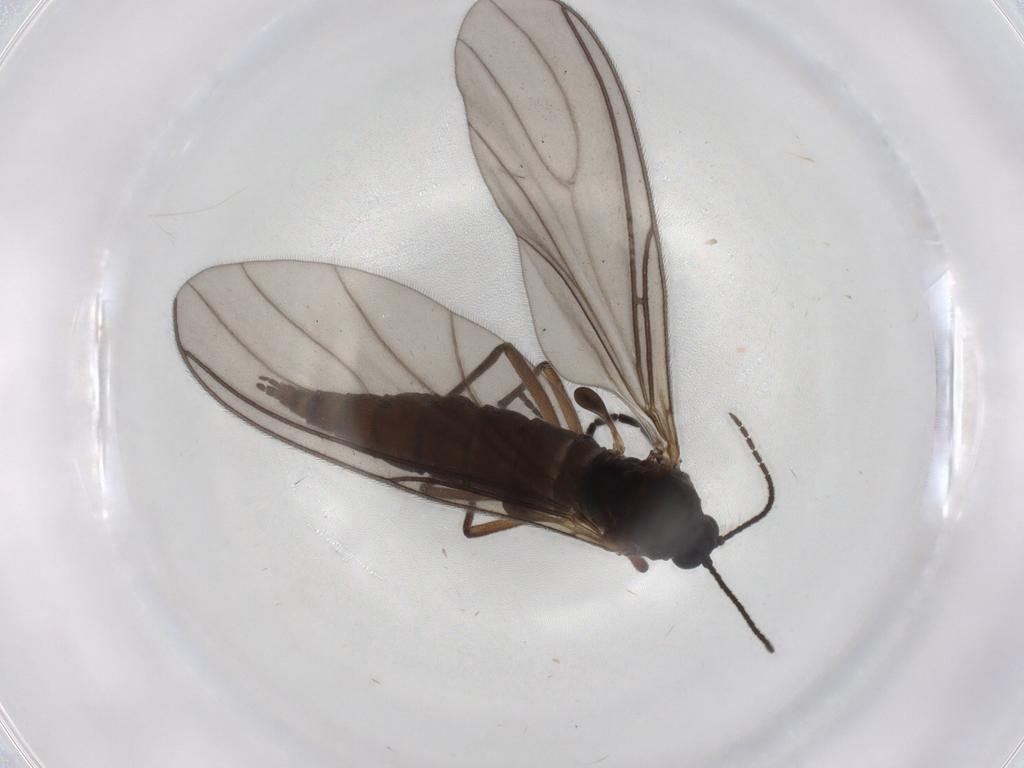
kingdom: Animalia
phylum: Arthropoda
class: Insecta
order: Diptera
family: Sciaridae
